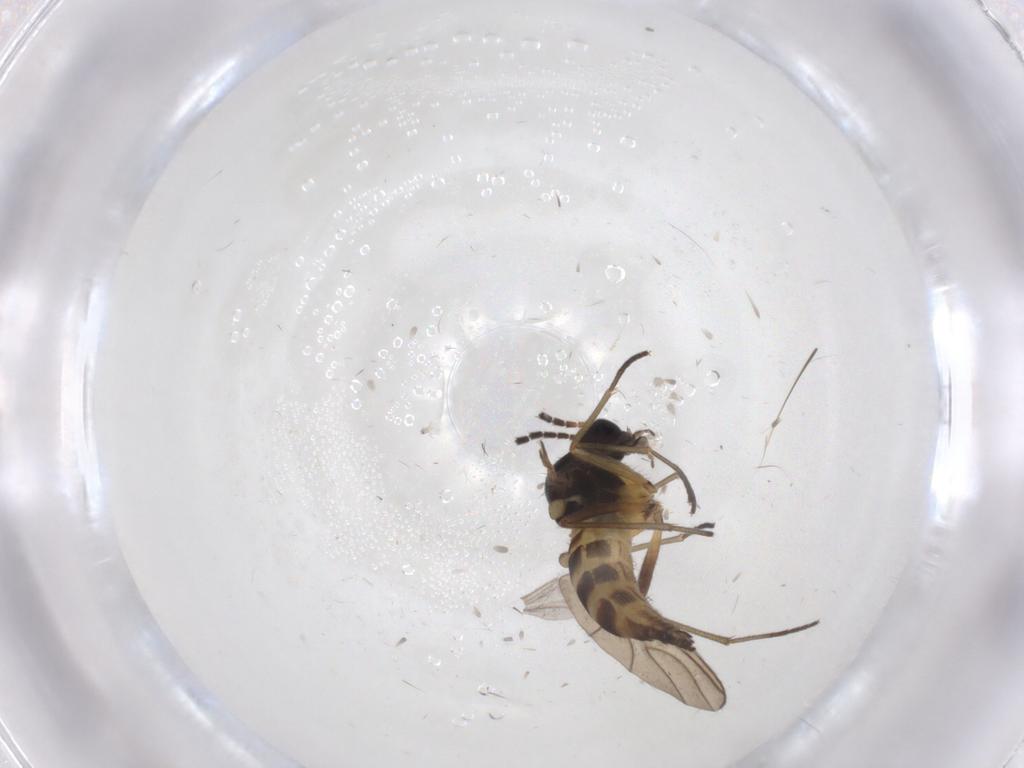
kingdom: Animalia
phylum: Arthropoda
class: Insecta
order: Diptera
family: Sciaridae
